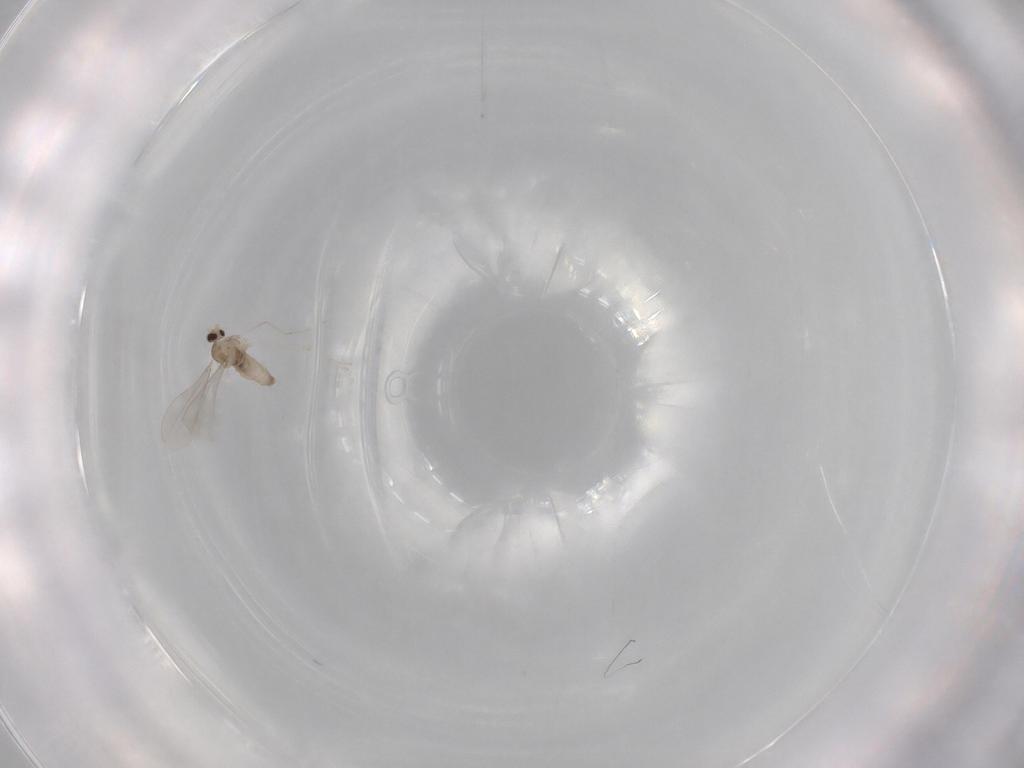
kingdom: Animalia
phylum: Arthropoda
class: Insecta
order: Diptera
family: Cecidomyiidae
